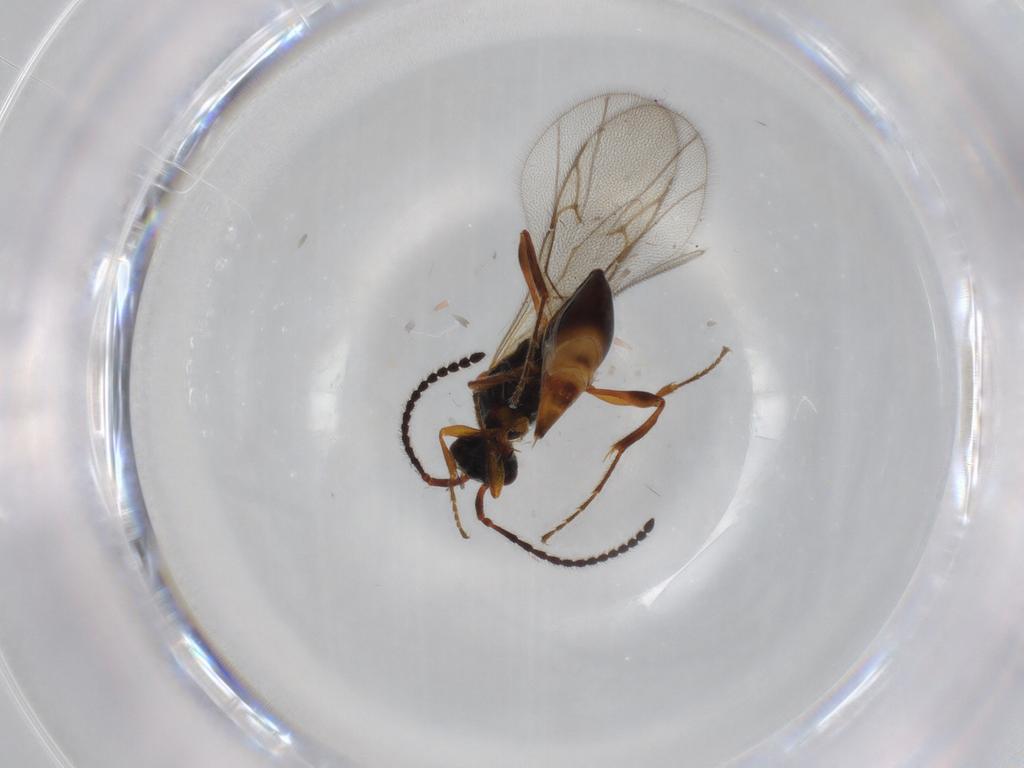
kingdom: Animalia
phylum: Arthropoda
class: Insecta
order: Hymenoptera
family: Diapriidae
